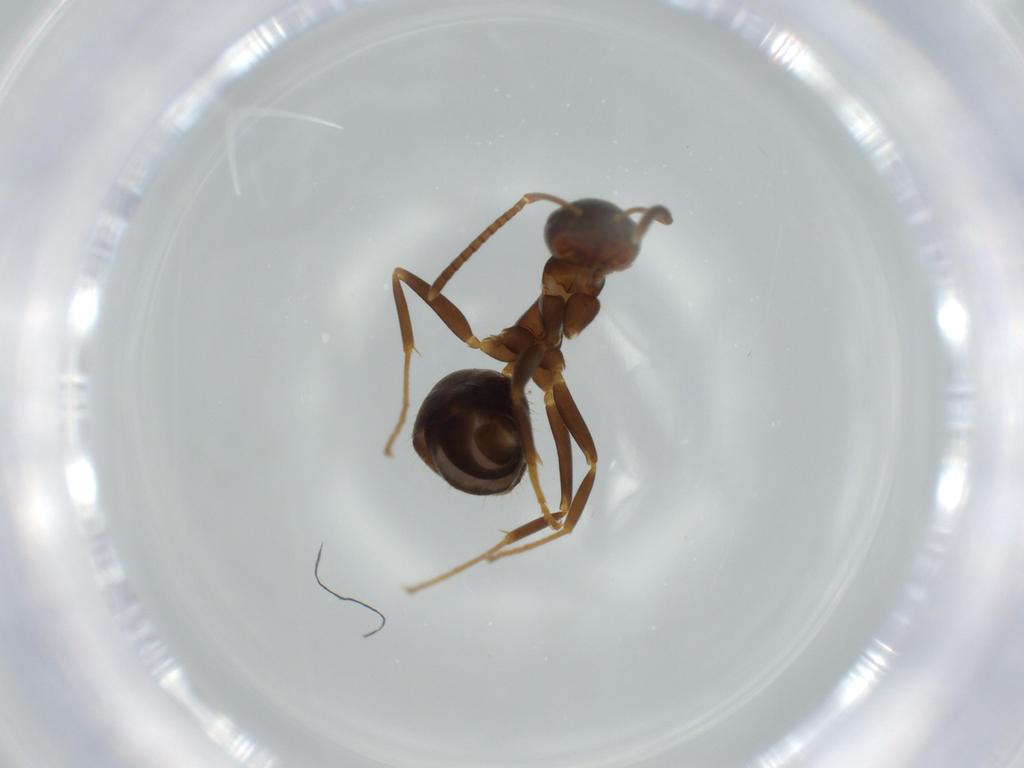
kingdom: Animalia
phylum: Arthropoda
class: Insecta
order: Hymenoptera
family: Formicidae
